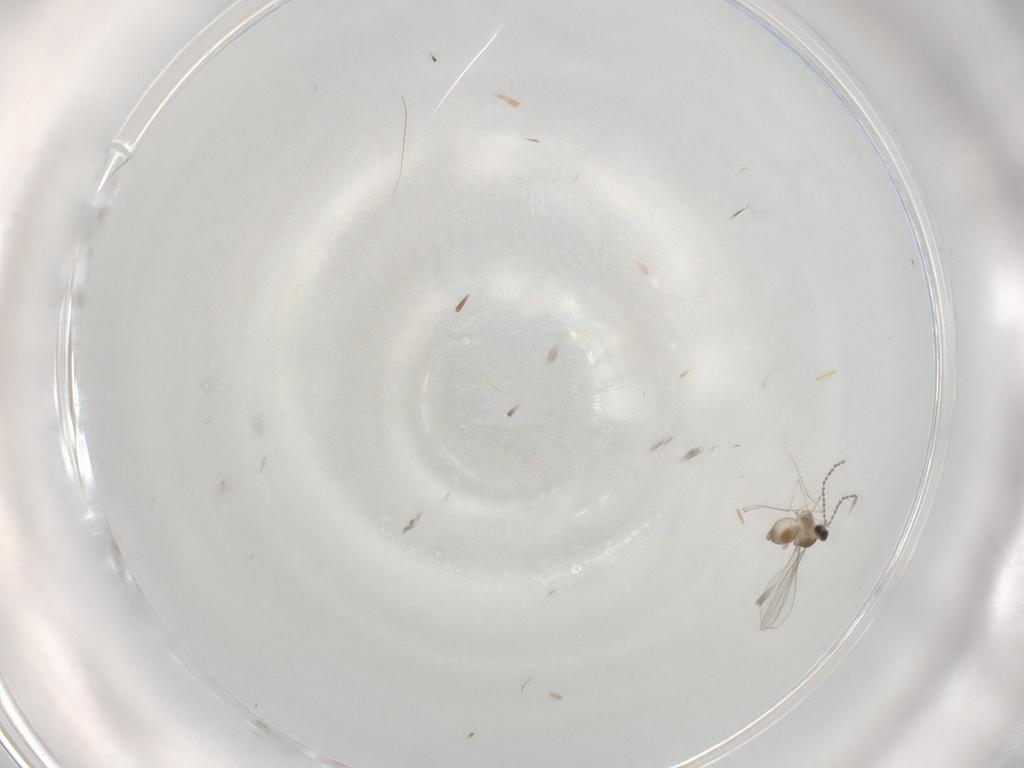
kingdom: Animalia
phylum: Arthropoda
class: Insecta
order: Diptera
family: Cecidomyiidae
